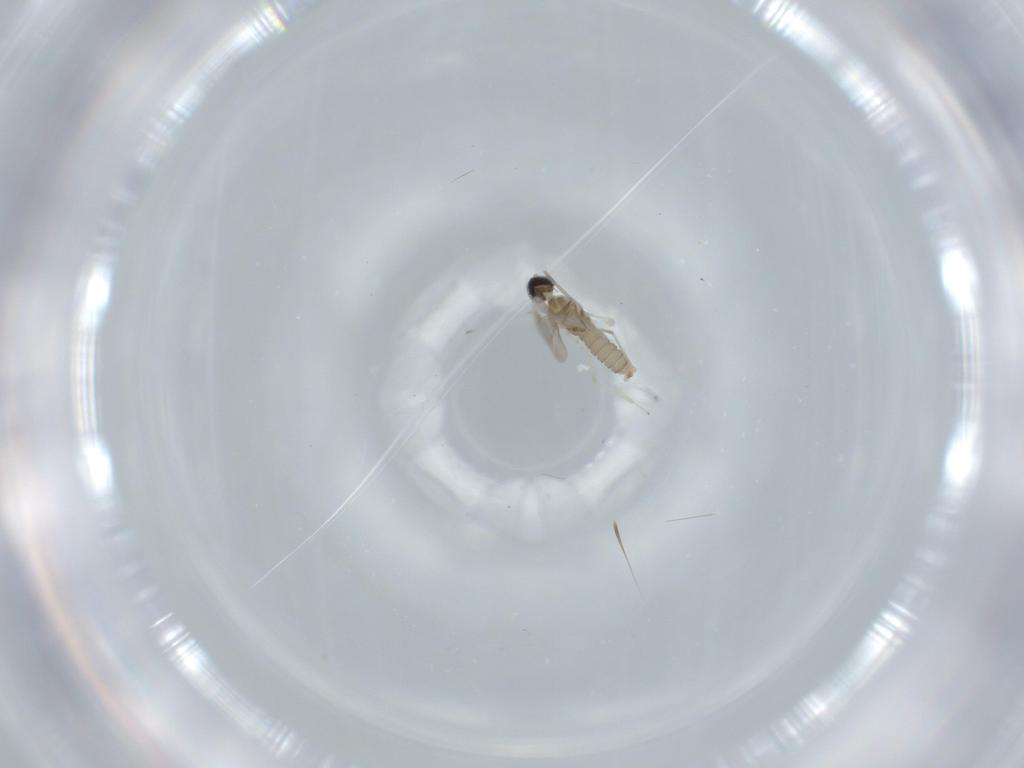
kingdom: Animalia
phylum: Arthropoda
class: Insecta
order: Diptera
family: Cecidomyiidae
